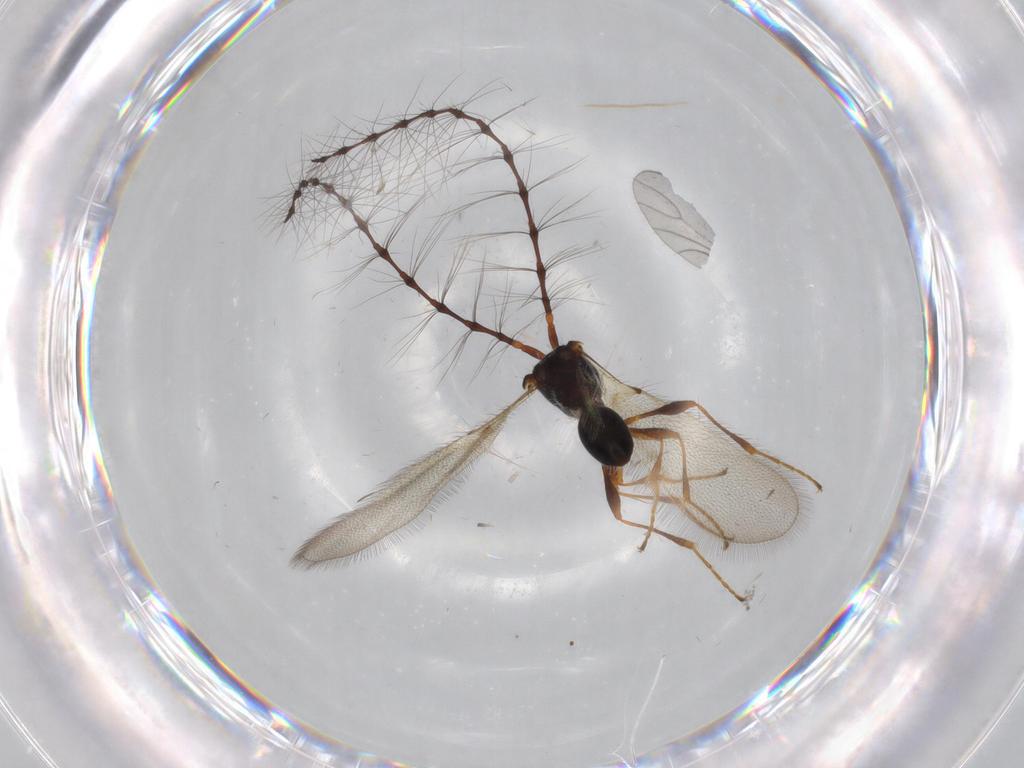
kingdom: Animalia
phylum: Arthropoda
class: Insecta
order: Hymenoptera
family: Diapriidae
